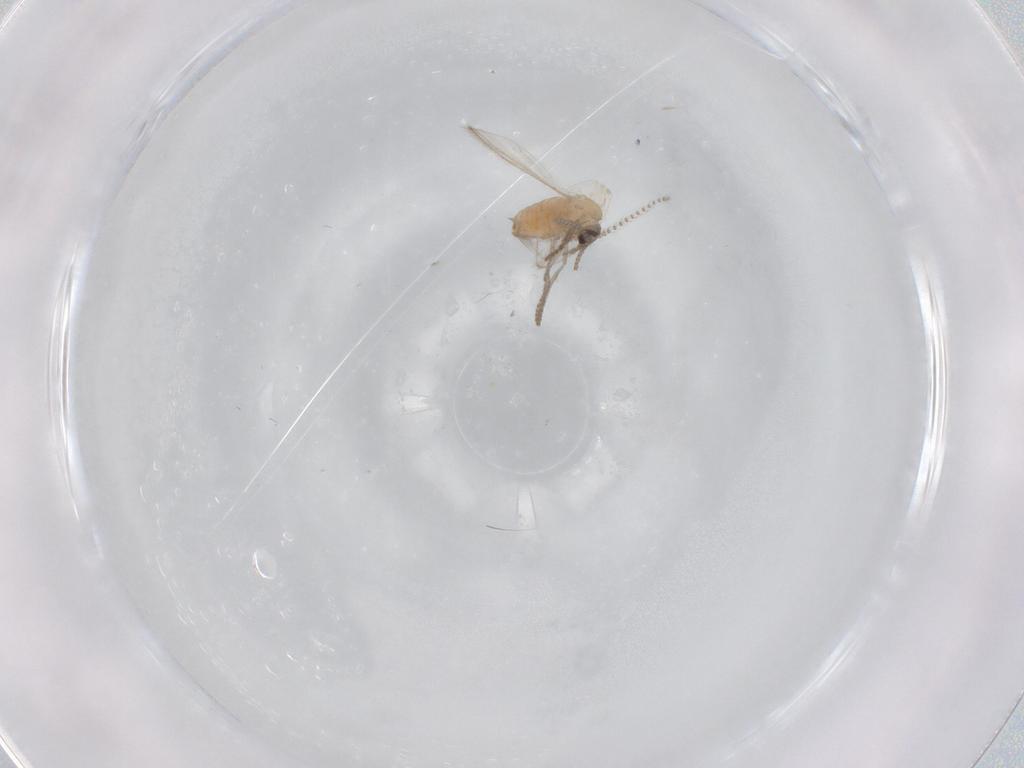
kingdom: Animalia
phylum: Arthropoda
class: Insecta
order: Diptera
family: Psychodidae
